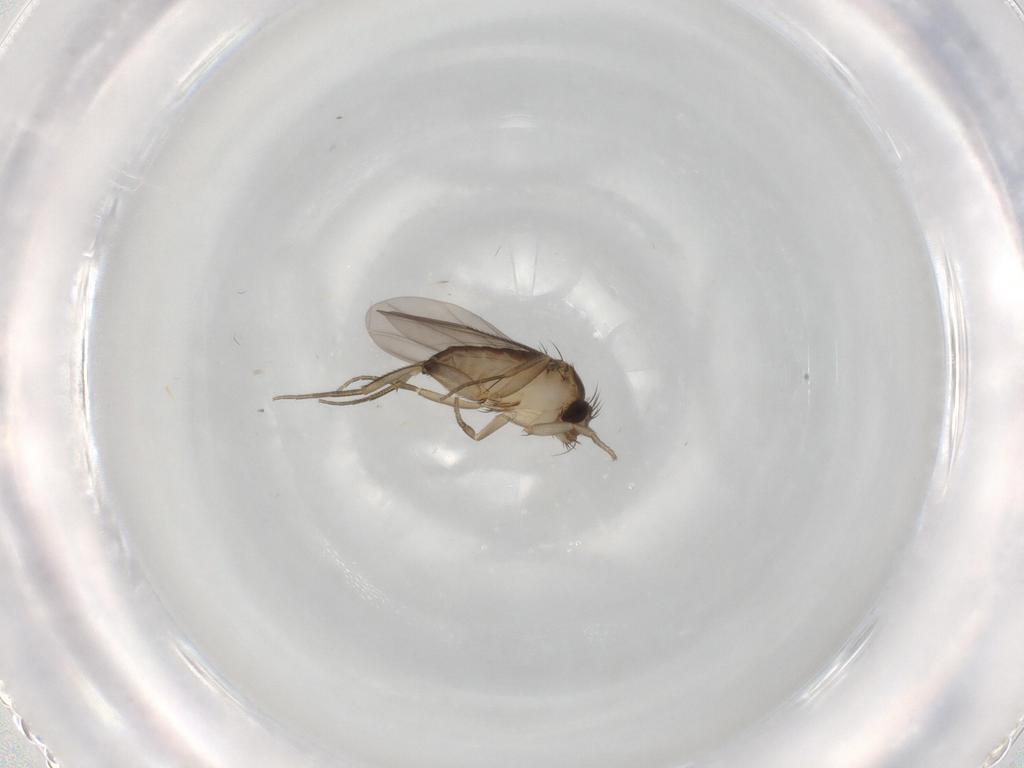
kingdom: Animalia
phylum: Arthropoda
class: Insecta
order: Diptera
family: Phoridae
